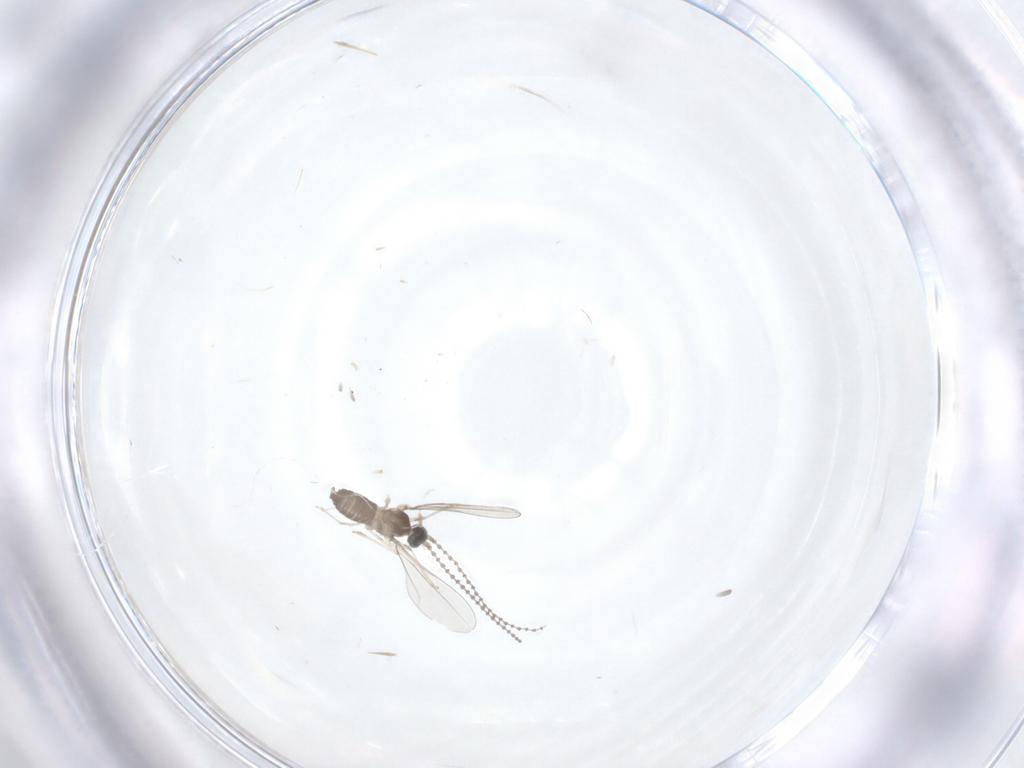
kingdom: Animalia
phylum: Arthropoda
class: Insecta
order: Diptera
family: Cecidomyiidae
